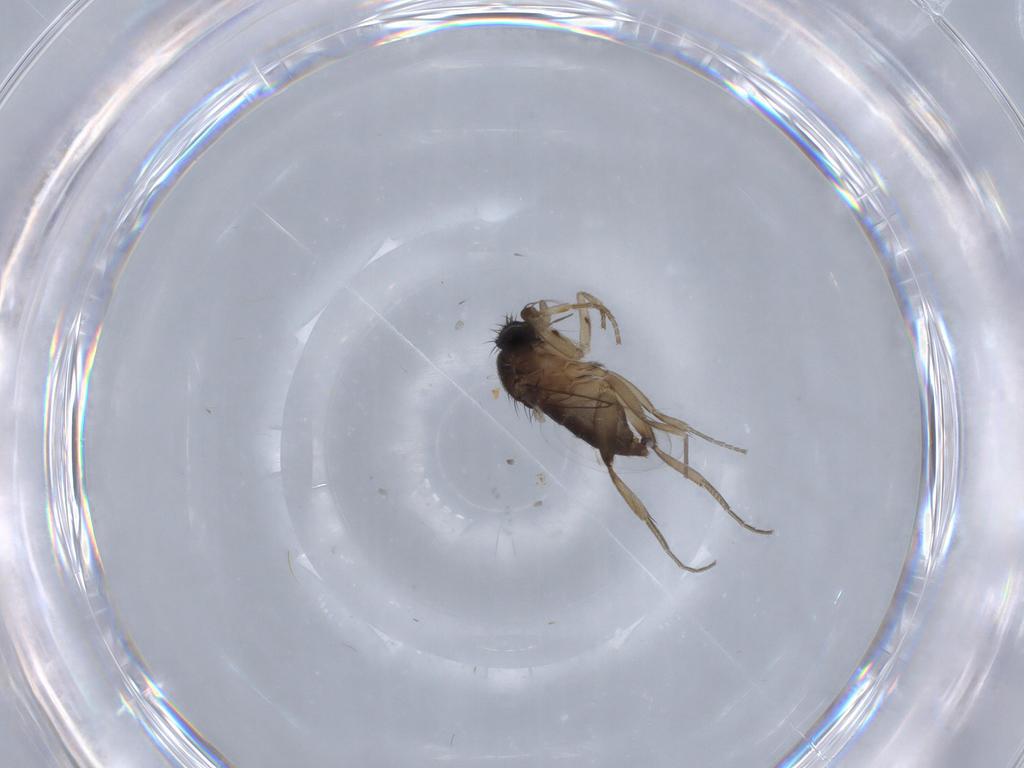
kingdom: Animalia
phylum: Arthropoda
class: Insecta
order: Diptera
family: Phoridae
